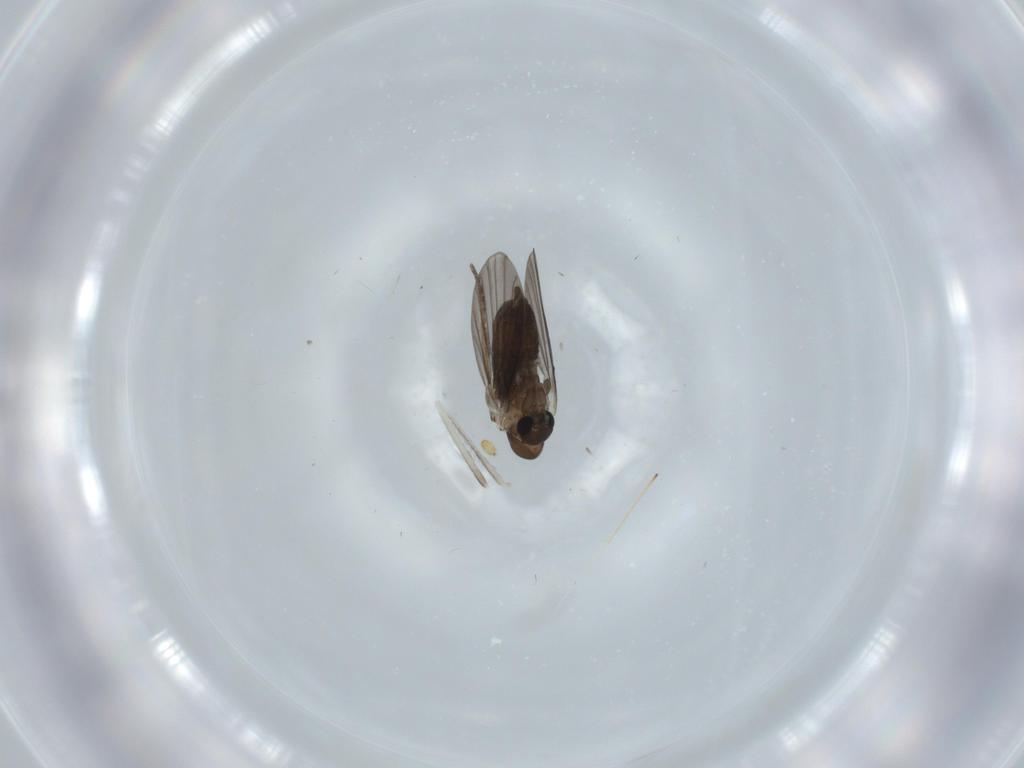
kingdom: Animalia
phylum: Arthropoda
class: Insecta
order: Diptera
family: Cecidomyiidae
